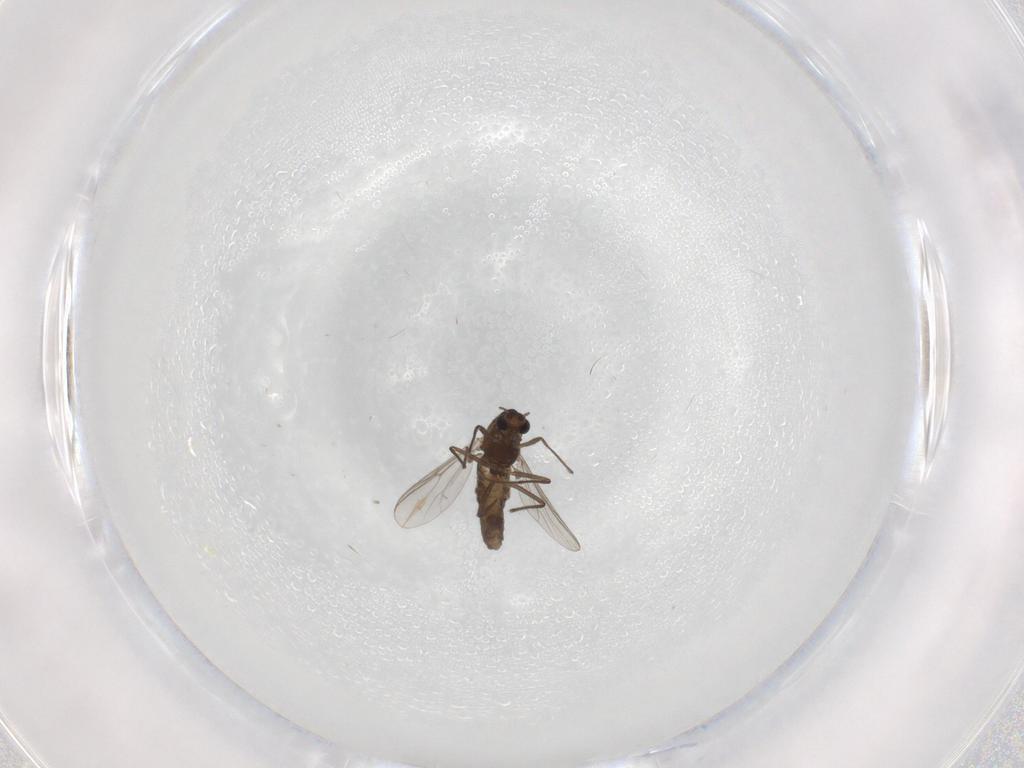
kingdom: Animalia
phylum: Arthropoda
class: Insecta
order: Diptera
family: Chironomidae
